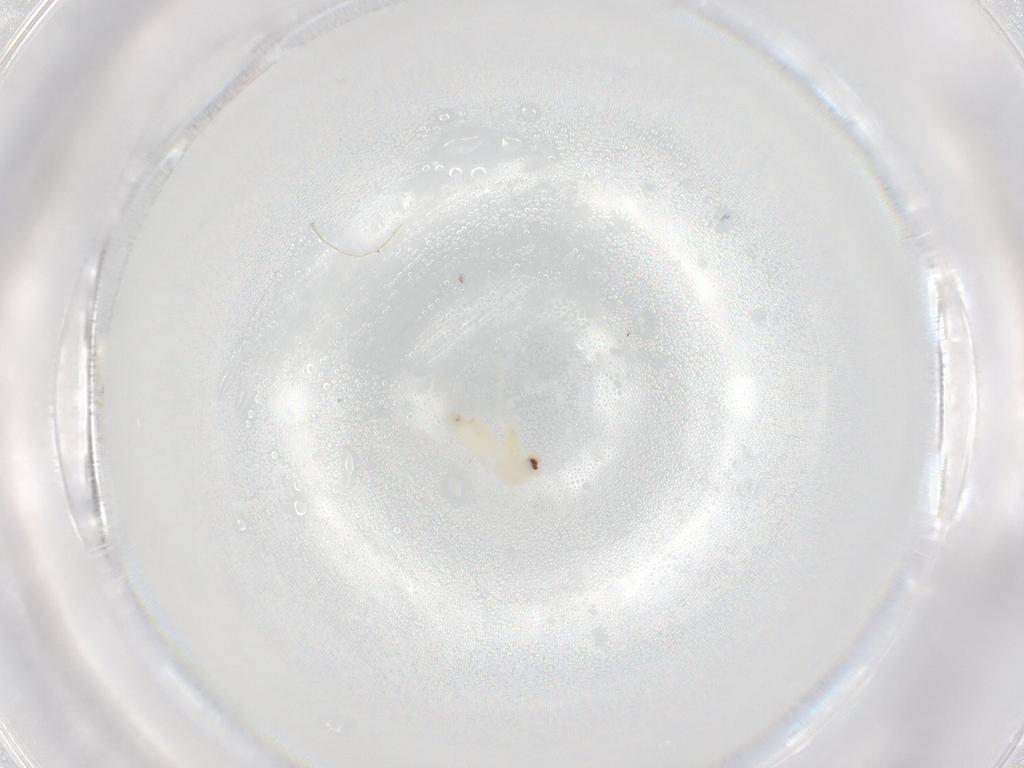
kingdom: Animalia
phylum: Arthropoda
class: Insecta
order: Hemiptera
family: Aleyrodidae
